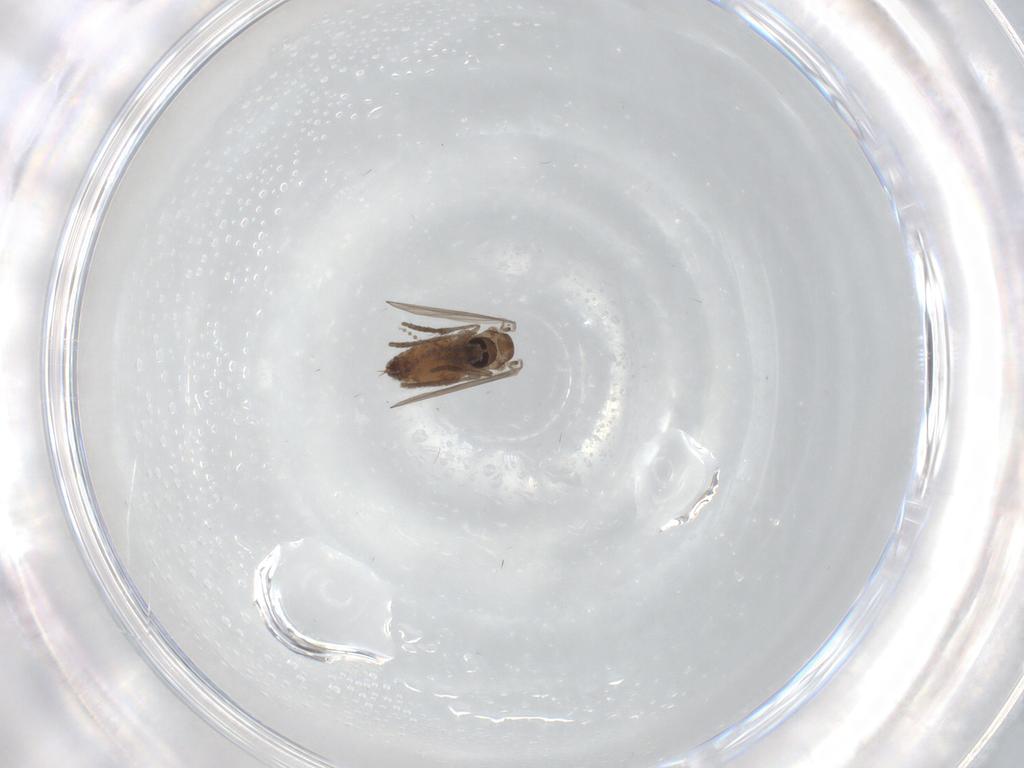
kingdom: Animalia
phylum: Arthropoda
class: Insecta
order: Diptera
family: Psychodidae
